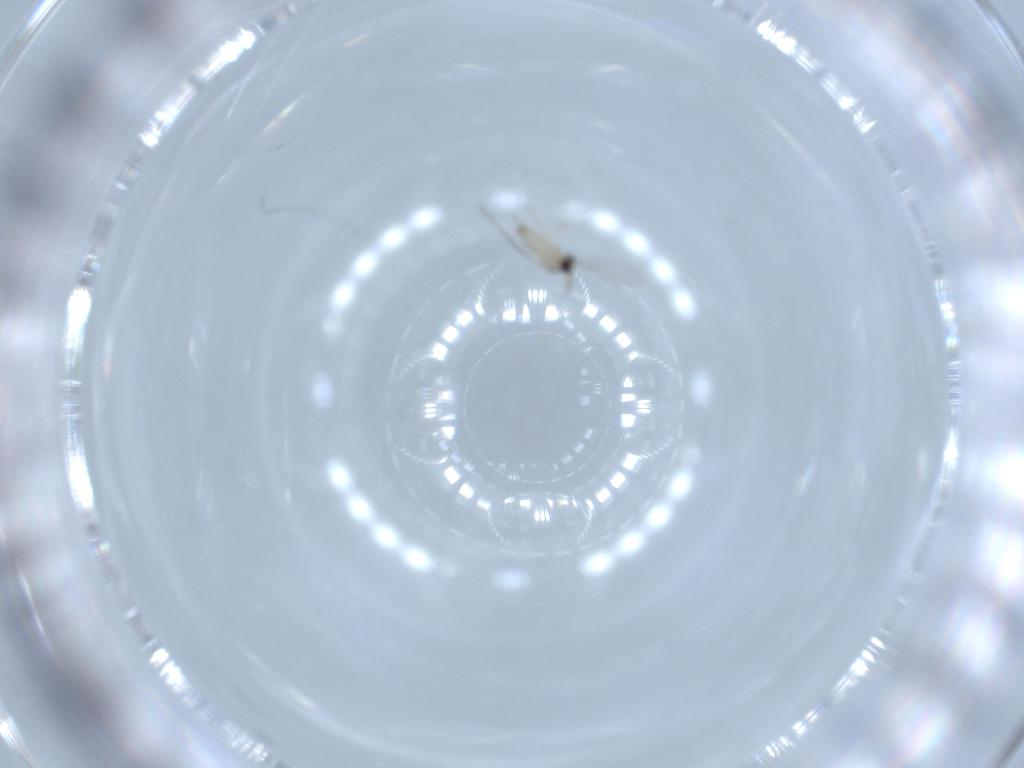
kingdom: Animalia
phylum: Arthropoda
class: Insecta
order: Diptera
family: Cecidomyiidae
